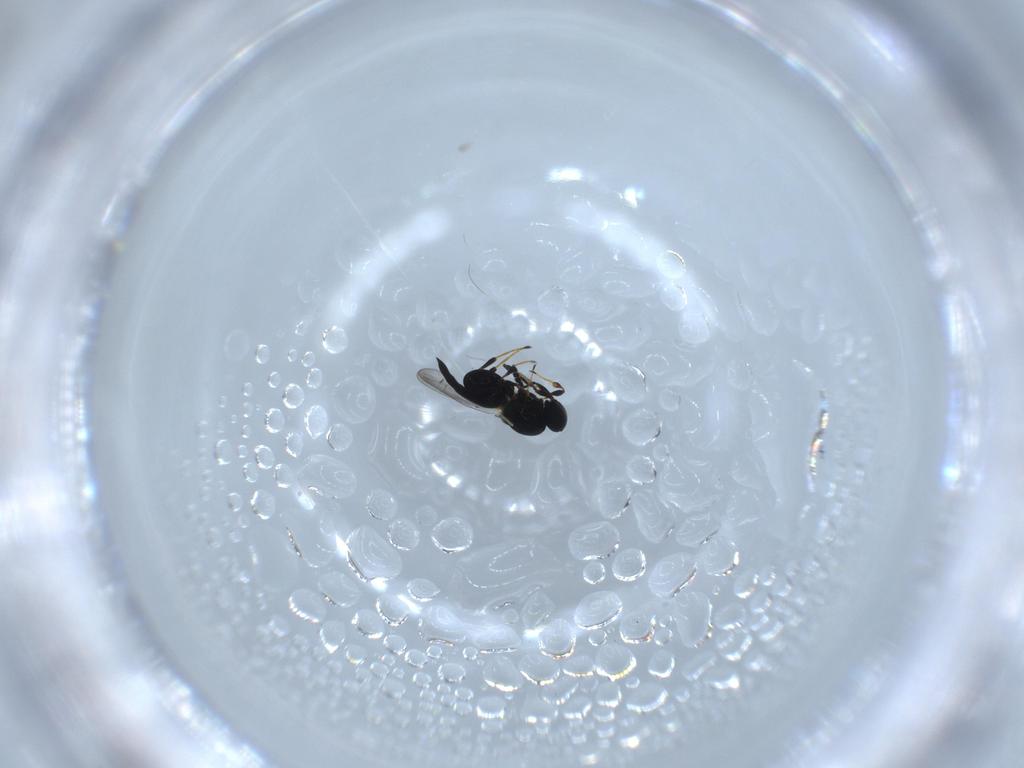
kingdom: Animalia
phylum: Arthropoda
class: Insecta
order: Hymenoptera
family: Platygastridae
